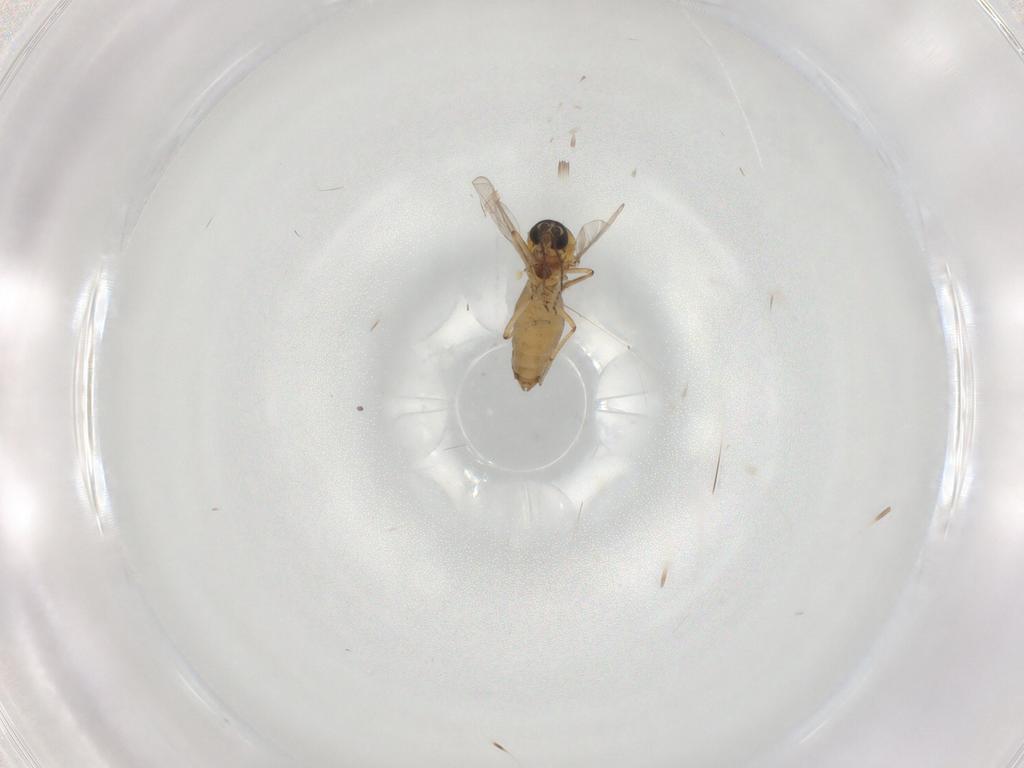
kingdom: Animalia
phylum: Arthropoda
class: Insecta
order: Diptera
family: Ceratopogonidae
